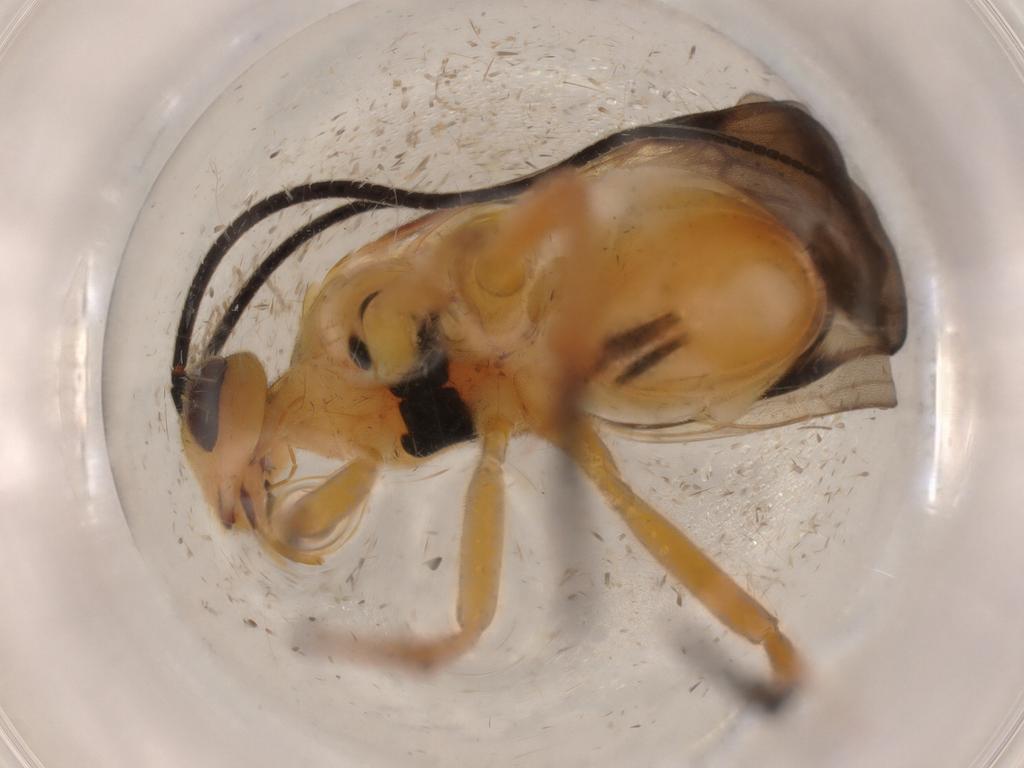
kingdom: Animalia
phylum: Arthropoda
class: Insecta
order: Hymenoptera
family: Braconidae
